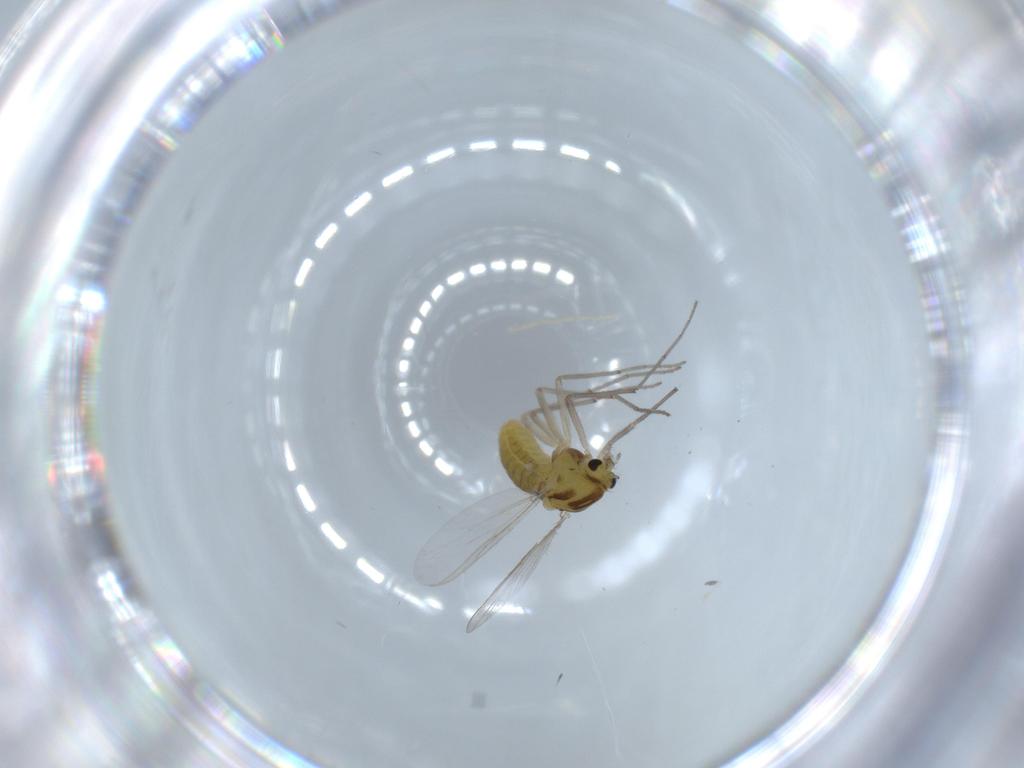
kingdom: Animalia
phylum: Arthropoda
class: Insecta
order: Diptera
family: Chironomidae
